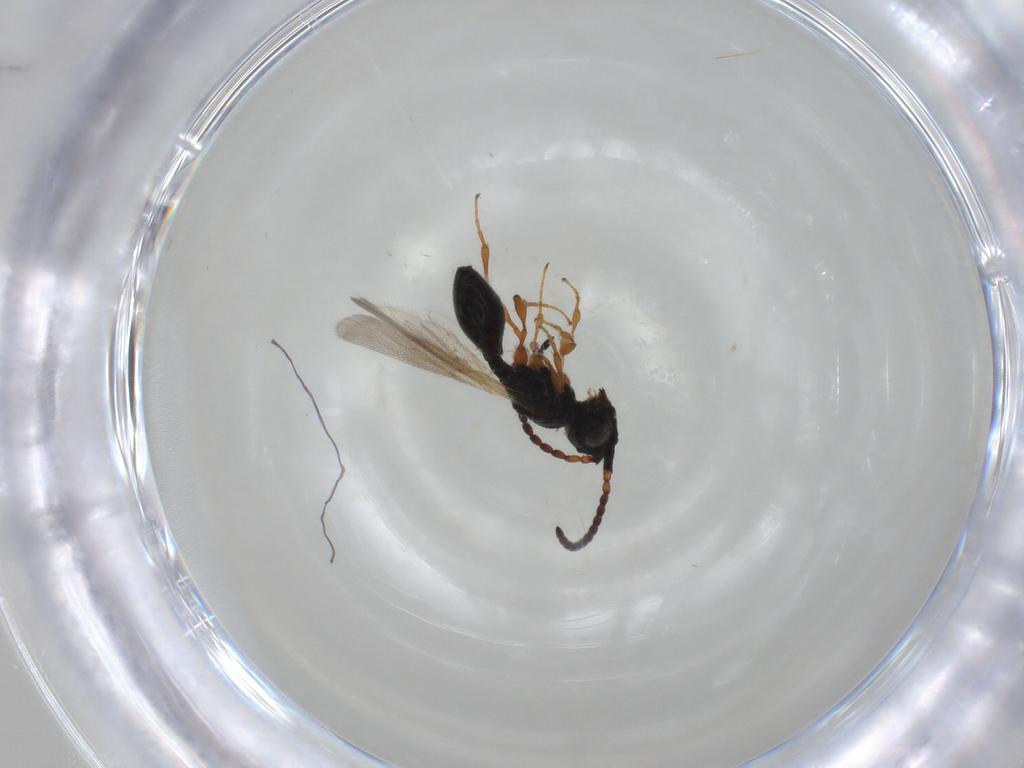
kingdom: Animalia
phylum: Arthropoda
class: Insecta
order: Hymenoptera
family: Diapriidae
